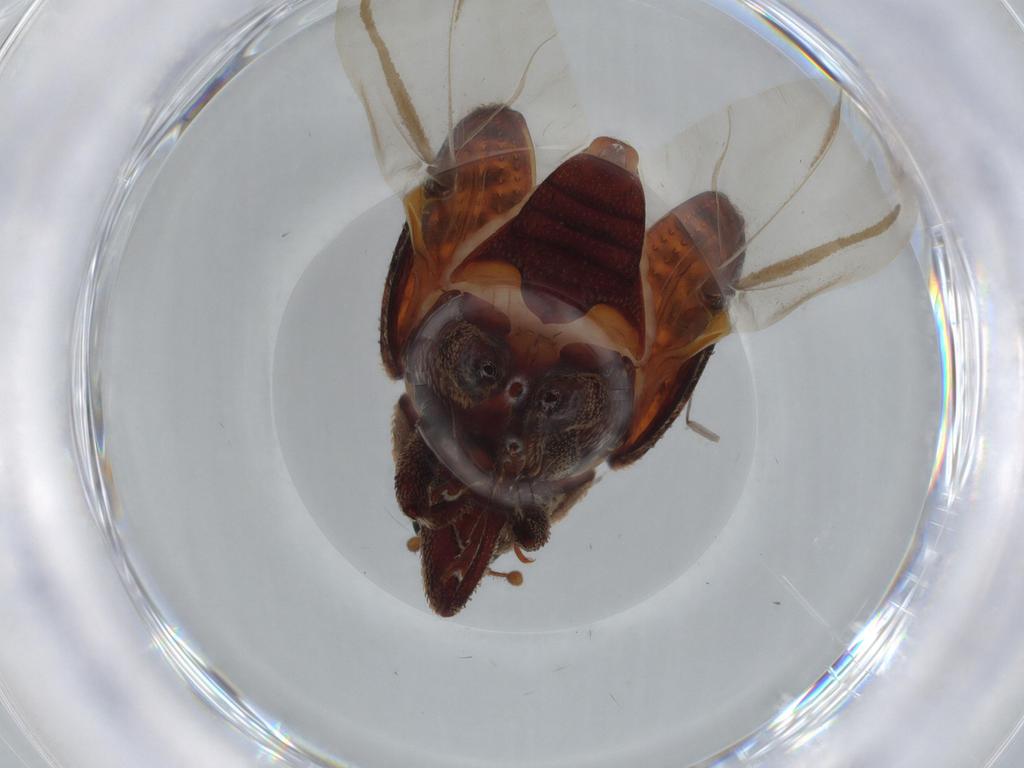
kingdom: Animalia
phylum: Arthropoda
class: Insecta
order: Coleoptera
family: Curculionidae
